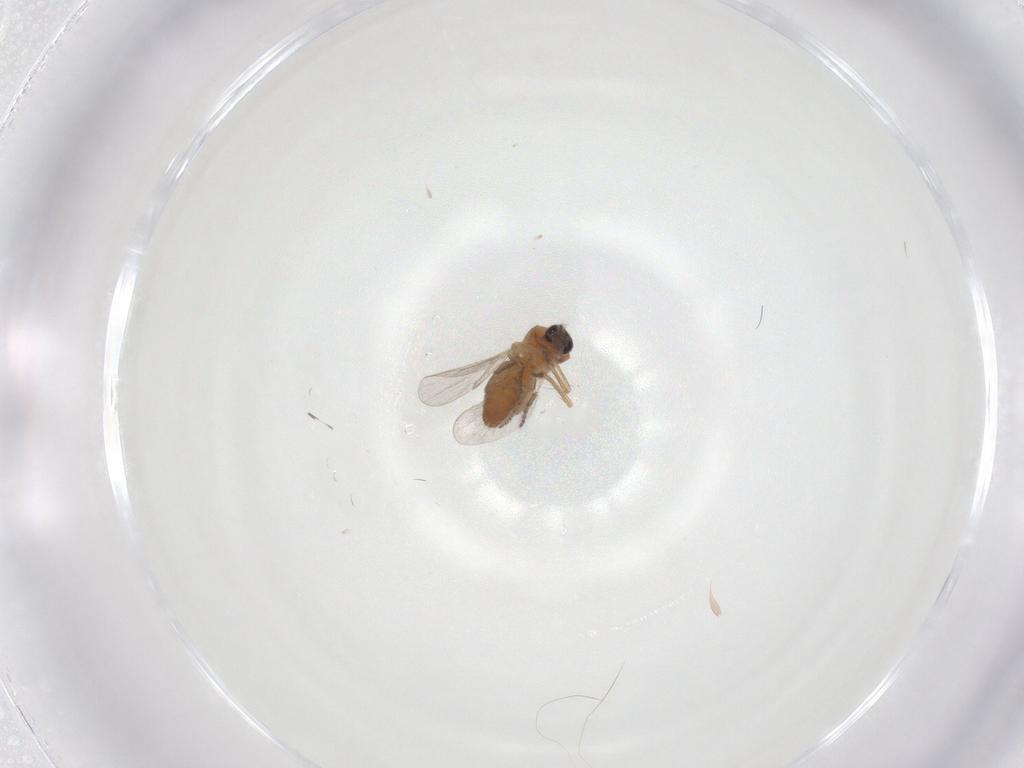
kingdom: Animalia
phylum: Arthropoda
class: Insecta
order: Diptera
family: Ceratopogonidae
